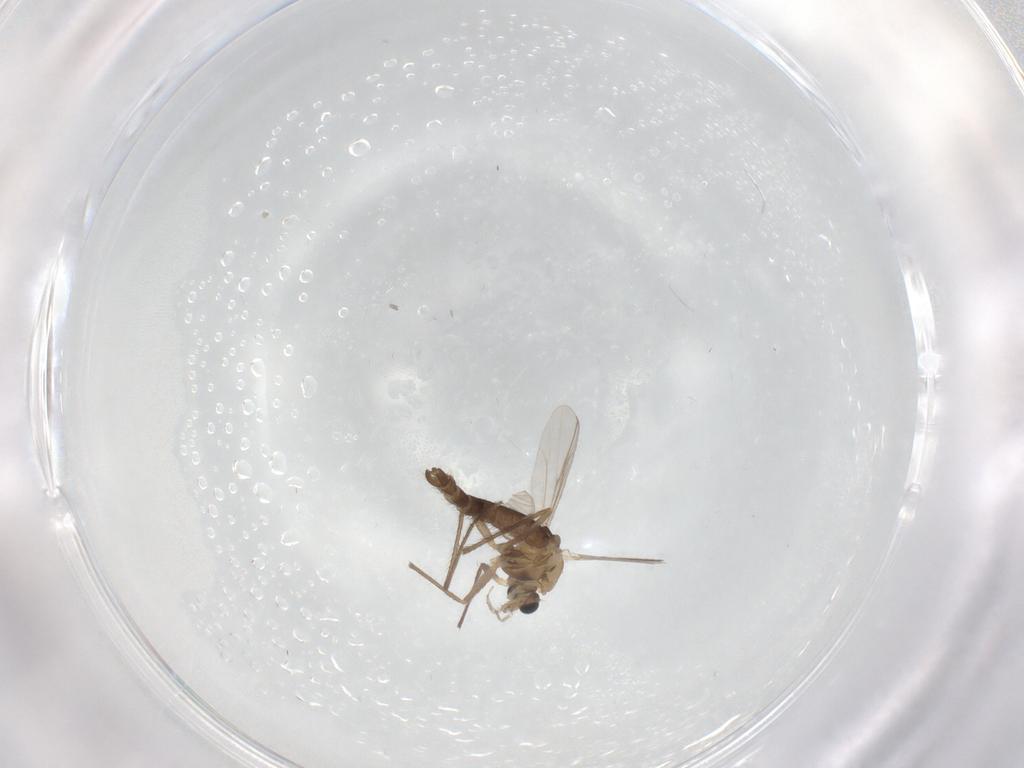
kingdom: Animalia
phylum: Arthropoda
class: Insecta
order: Diptera
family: Chironomidae
